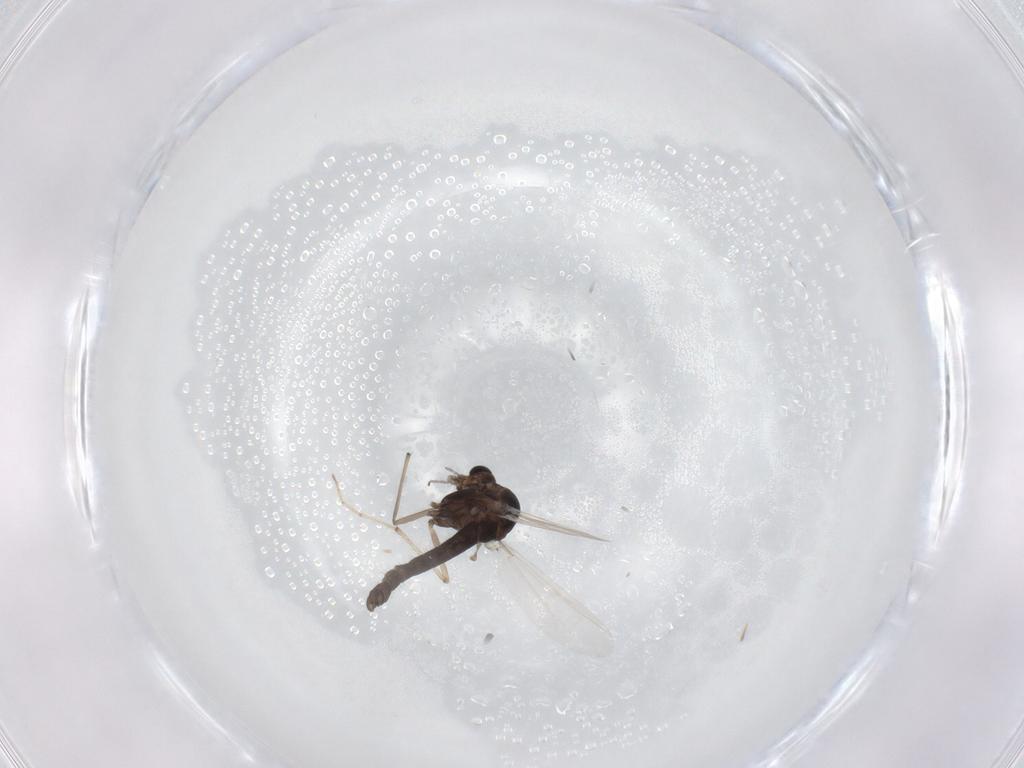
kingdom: Animalia
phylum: Arthropoda
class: Insecta
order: Diptera
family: Chironomidae
